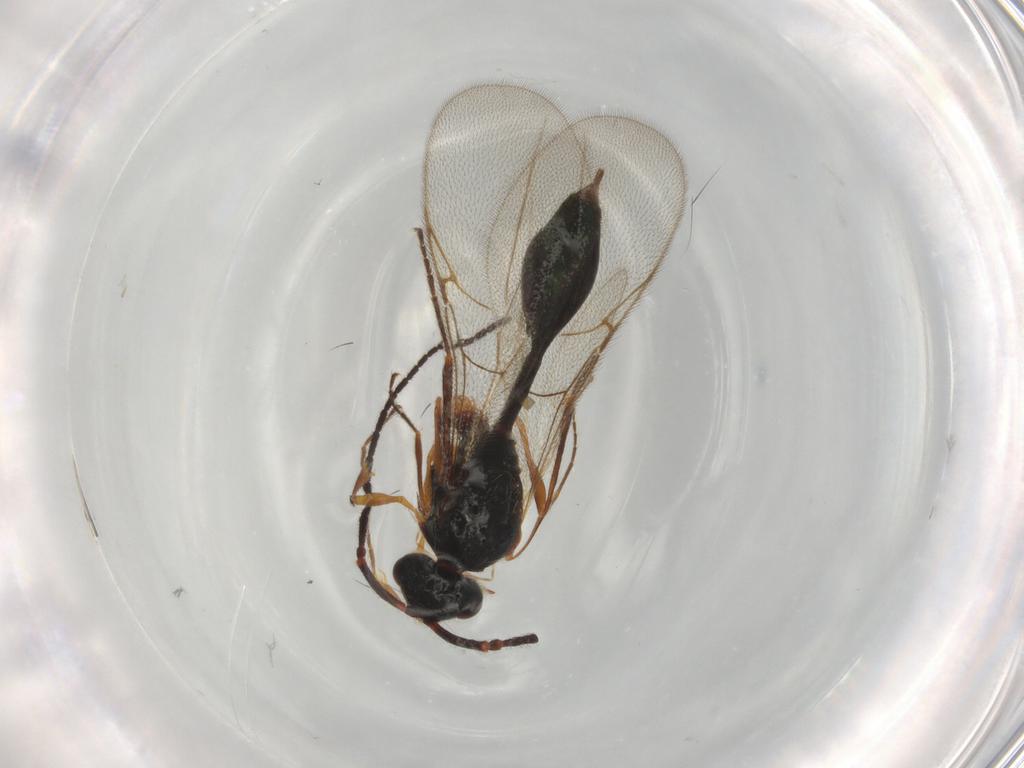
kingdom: Animalia
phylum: Arthropoda
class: Insecta
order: Hymenoptera
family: Diapriidae
